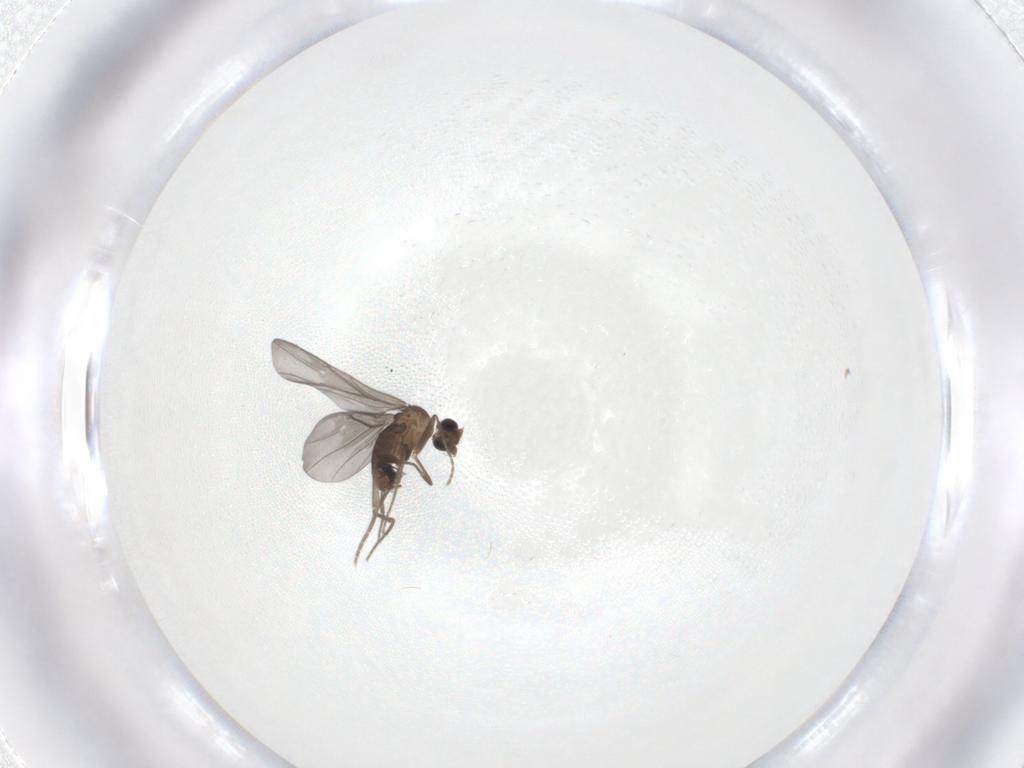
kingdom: Animalia
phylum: Arthropoda
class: Insecta
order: Diptera
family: Phoridae
